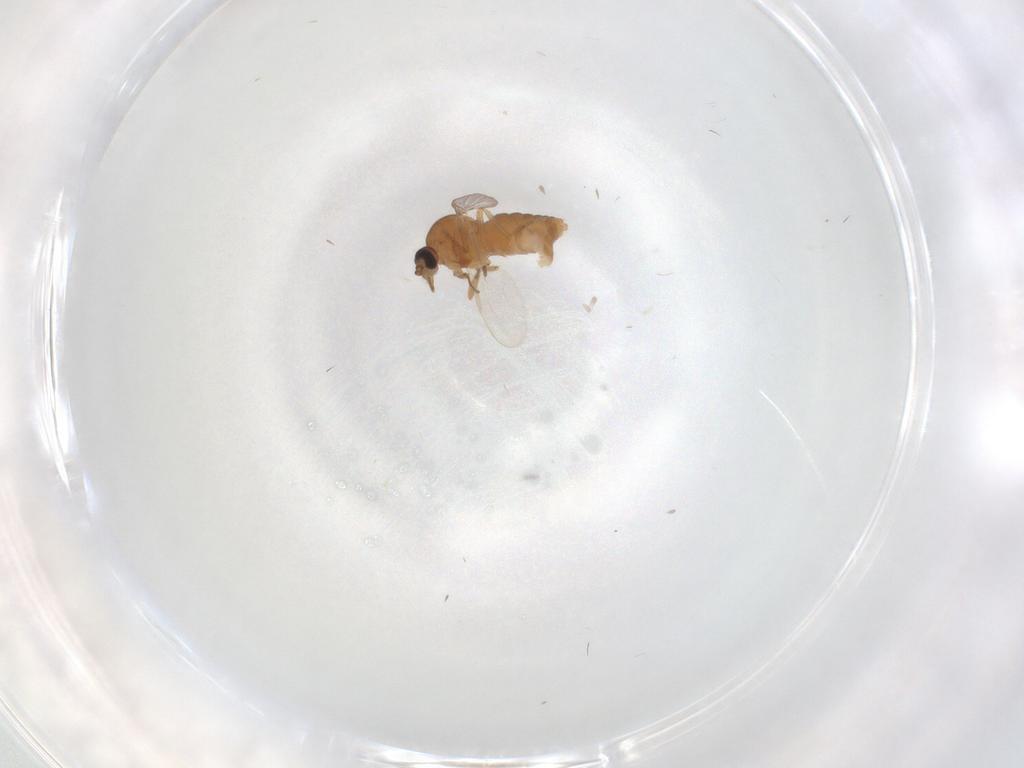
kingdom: Animalia
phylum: Arthropoda
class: Insecta
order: Diptera
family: Ceratopogonidae
